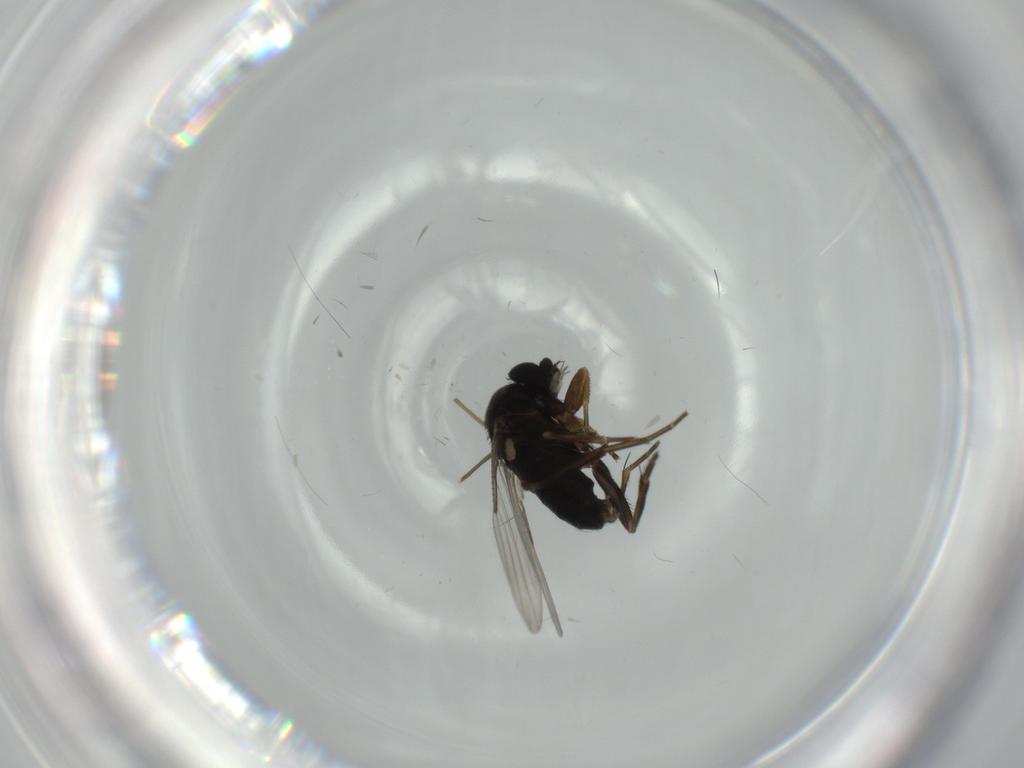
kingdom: Animalia
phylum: Arthropoda
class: Insecta
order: Diptera
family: Phoridae
